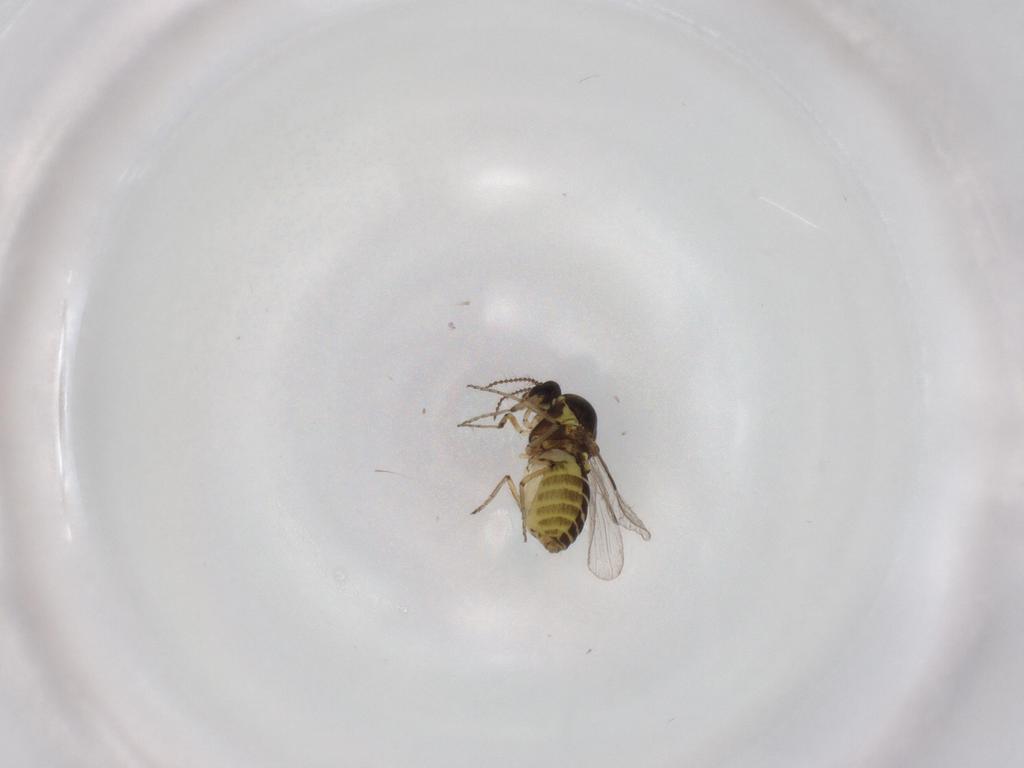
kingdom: Animalia
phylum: Arthropoda
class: Insecta
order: Diptera
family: Ceratopogonidae
